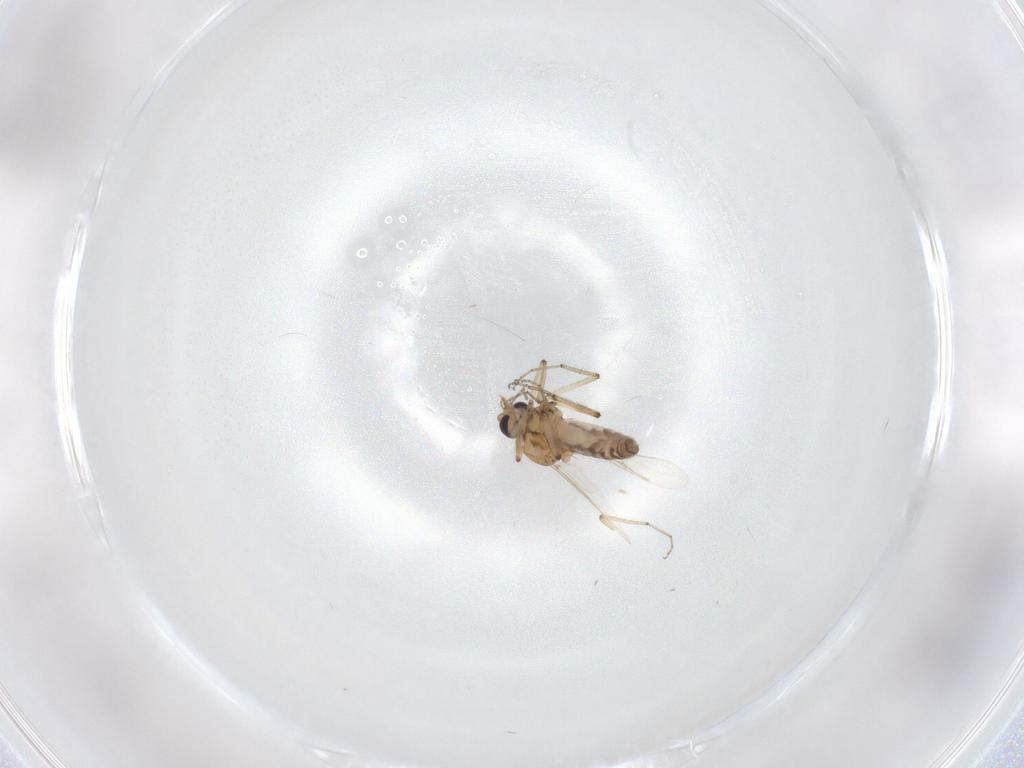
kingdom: Animalia
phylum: Arthropoda
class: Insecta
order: Diptera
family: Ceratopogonidae
